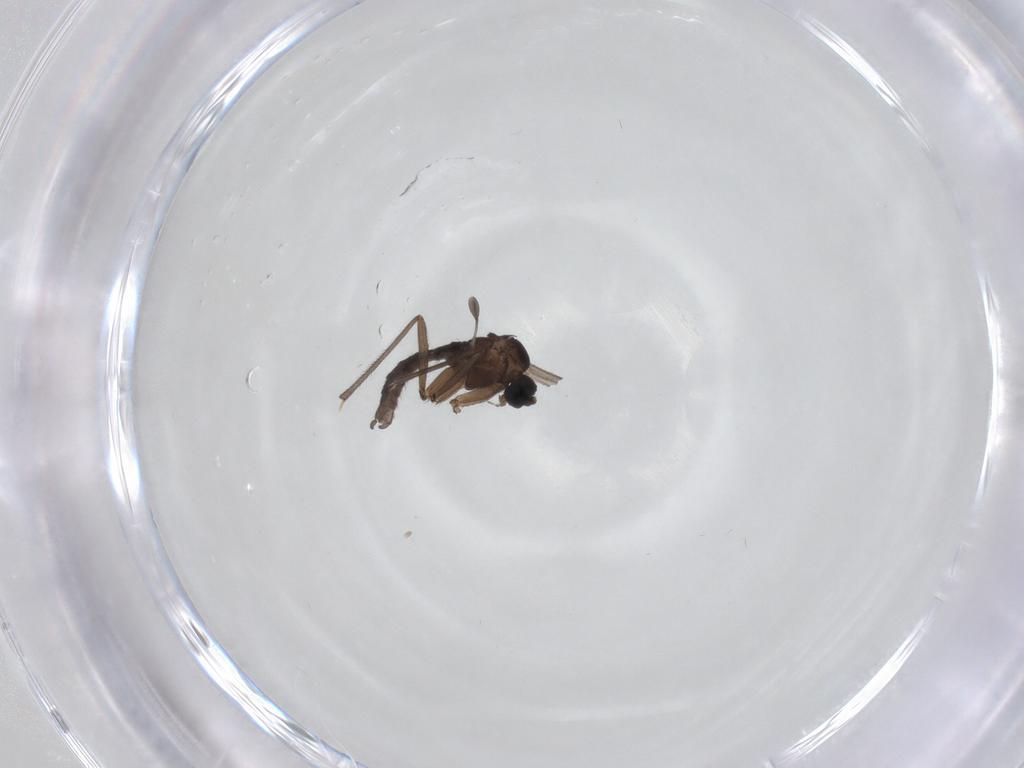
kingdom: Animalia
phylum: Arthropoda
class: Insecta
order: Diptera
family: Sciaridae
